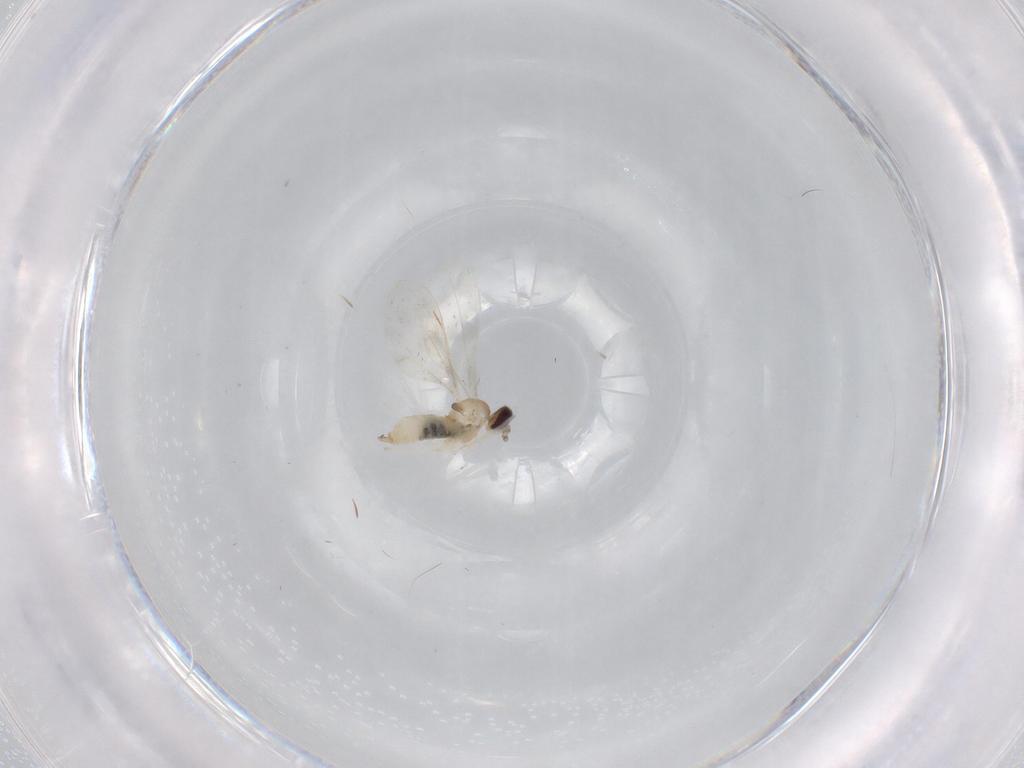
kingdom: Animalia
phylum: Arthropoda
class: Insecta
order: Diptera
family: Cecidomyiidae
